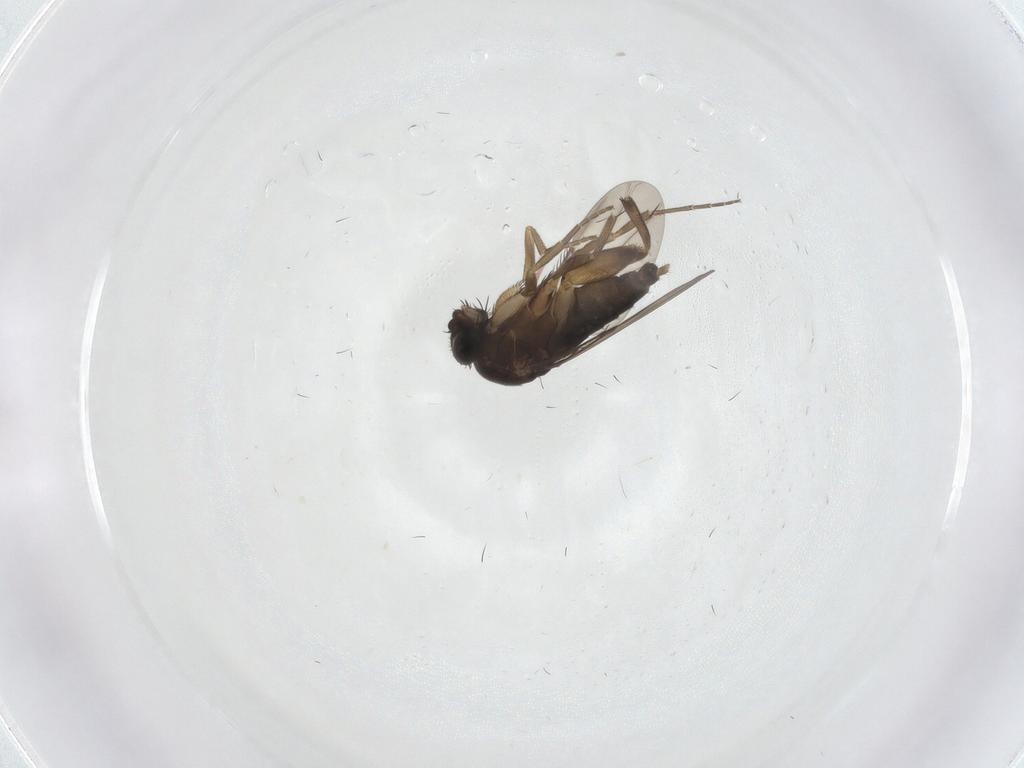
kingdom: Animalia
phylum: Arthropoda
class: Insecta
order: Diptera
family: Phoridae
